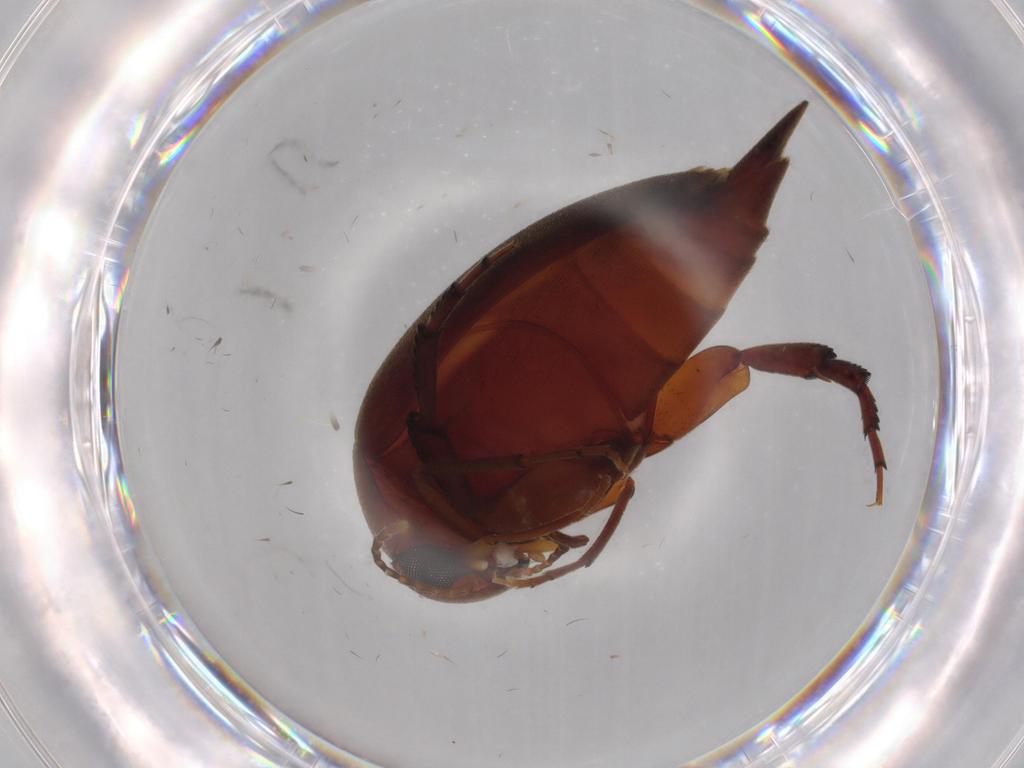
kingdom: Animalia
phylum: Arthropoda
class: Insecta
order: Coleoptera
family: Mordellidae
